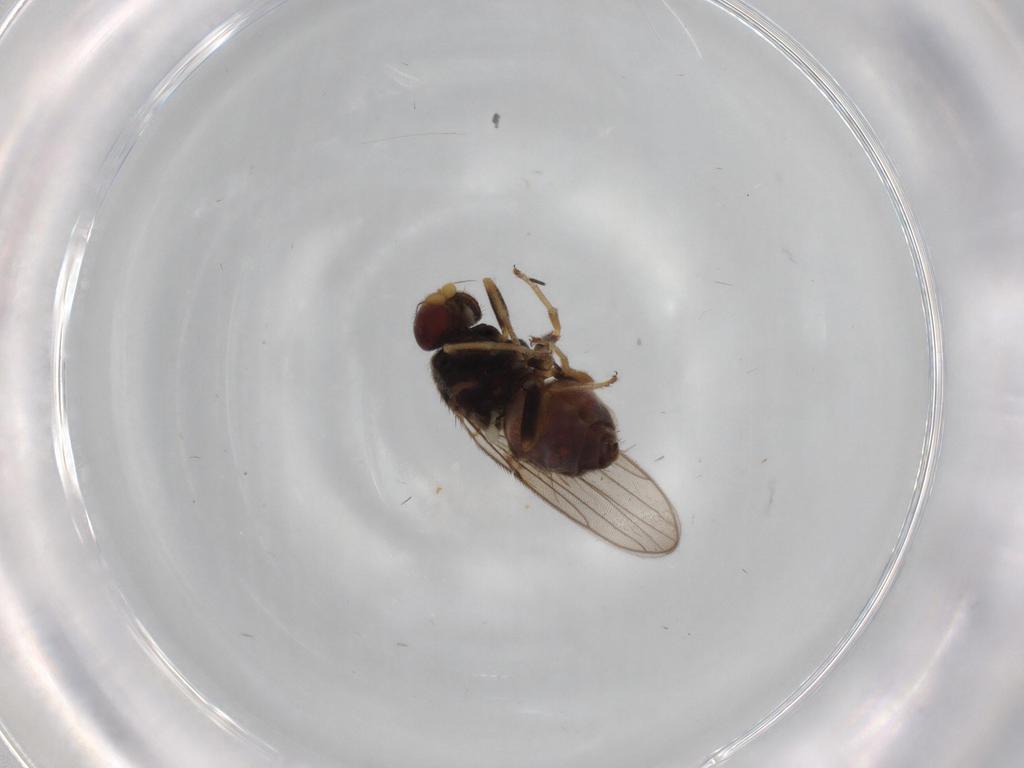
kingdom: Animalia
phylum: Arthropoda
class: Insecta
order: Diptera
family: Chloropidae
